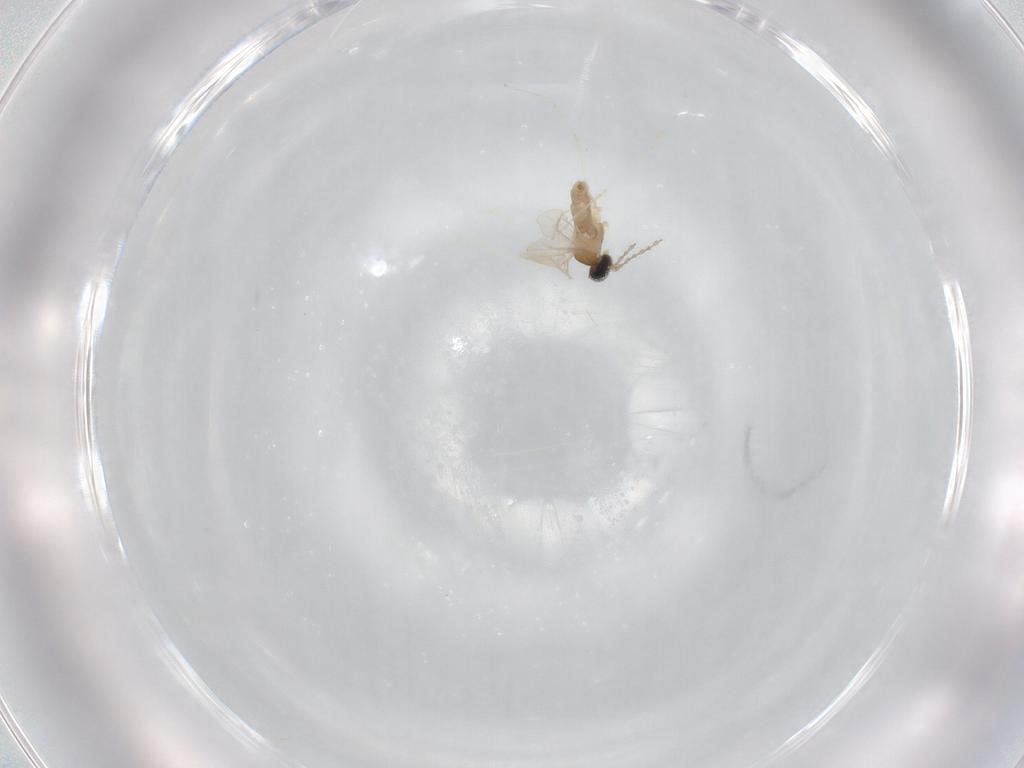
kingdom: Animalia
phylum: Arthropoda
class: Insecta
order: Diptera
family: Cecidomyiidae
